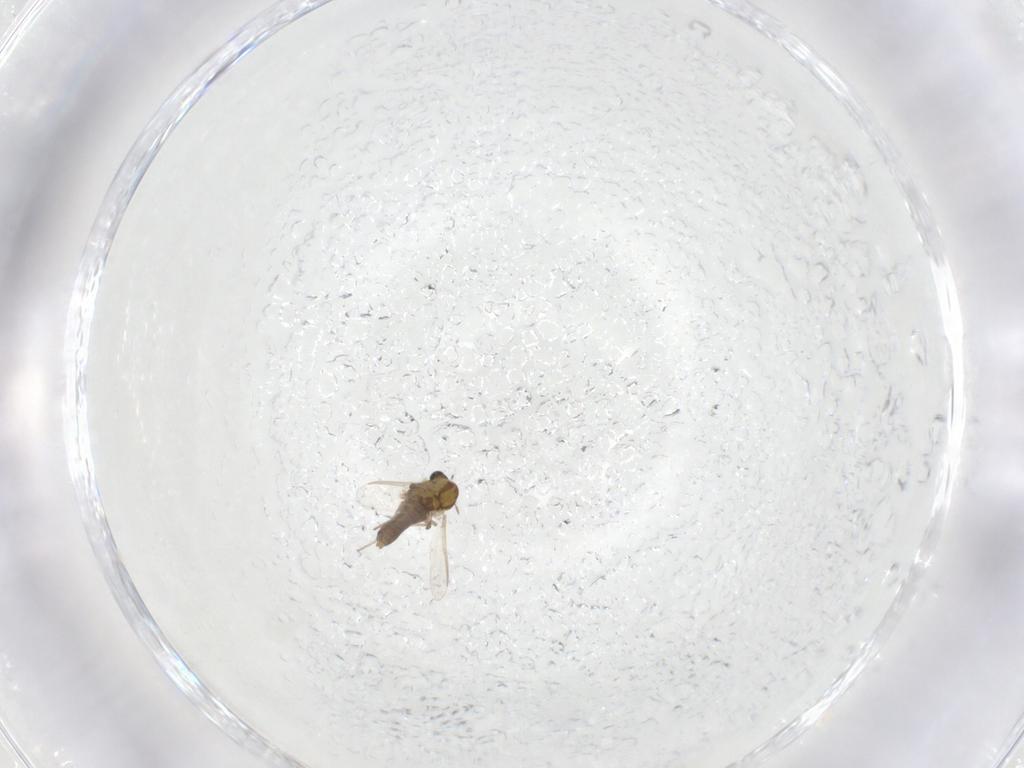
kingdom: Animalia
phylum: Arthropoda
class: Insecta
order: Diptera
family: Chironomidae
